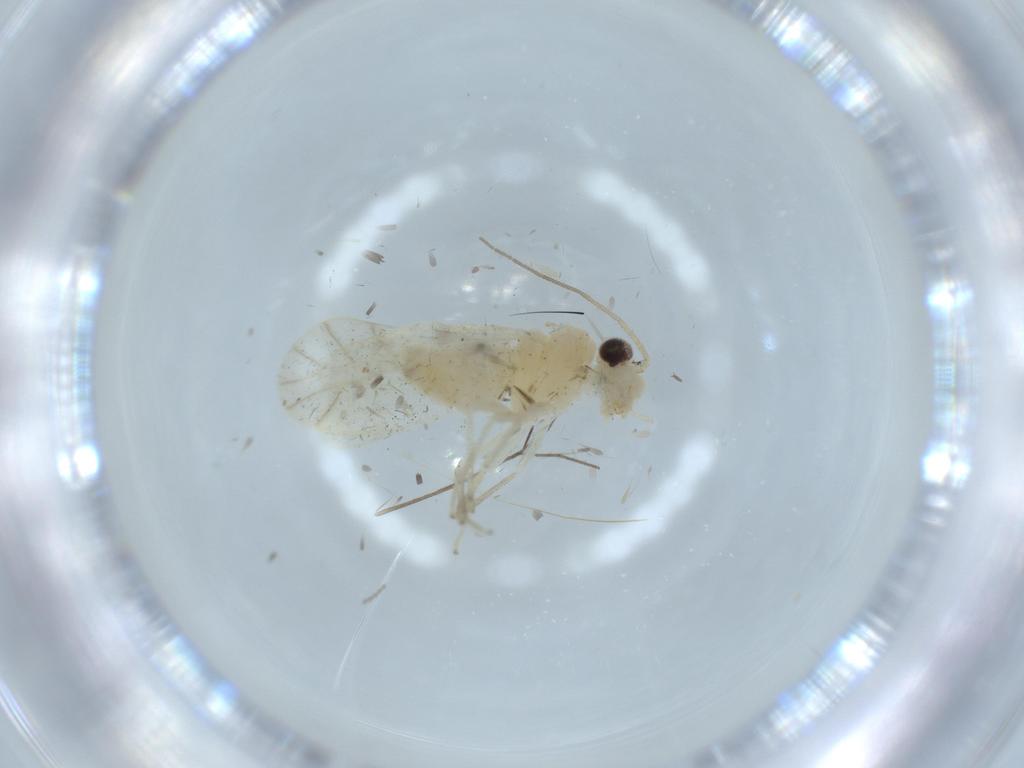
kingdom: Animalia
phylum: Arthropoda
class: Insecta
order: Psocodea
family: Caeciliusidae
